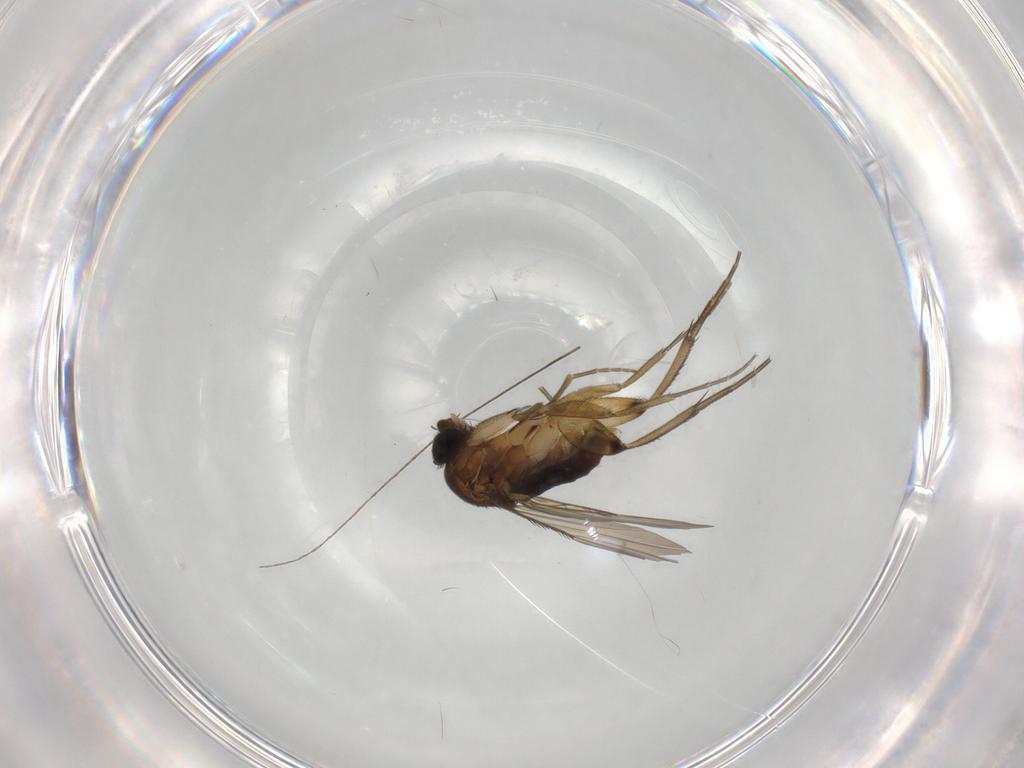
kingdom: Animalia
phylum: Arthropoda
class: Insecta
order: Diptera
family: Phoridae
